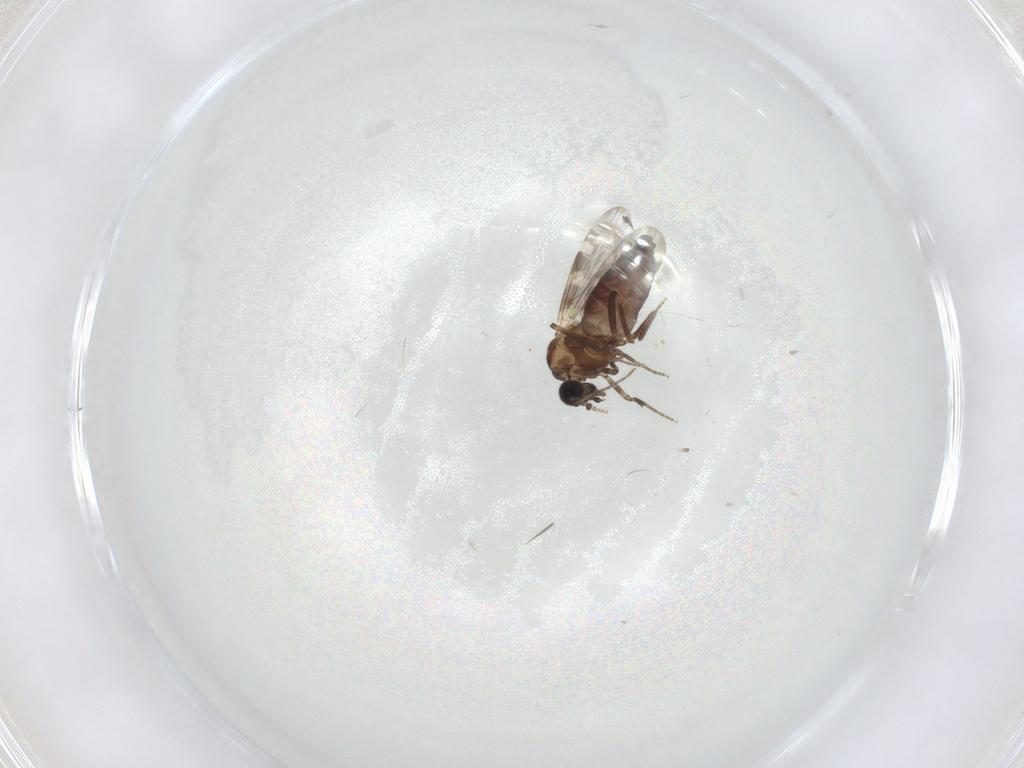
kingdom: Animalia
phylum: Arthropoda
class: Insecta
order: Diptera
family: Ceratopogonidae
